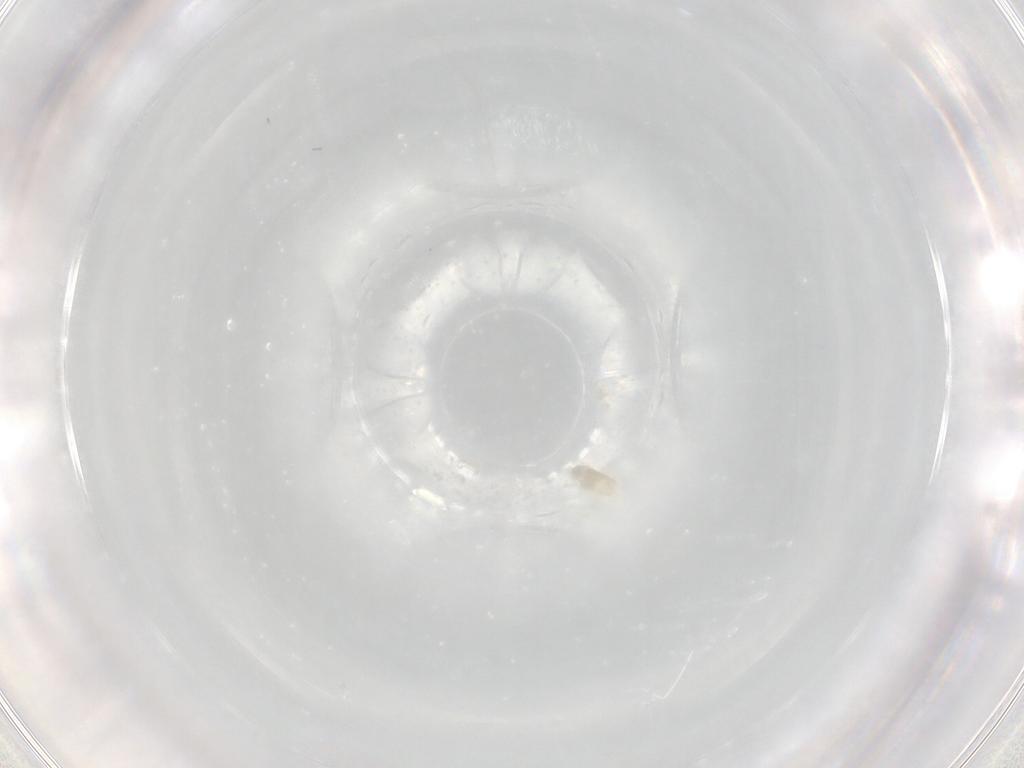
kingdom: Animalia
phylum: Arthropoda
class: Arachnida
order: Trombidiformes
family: Eupodidae
